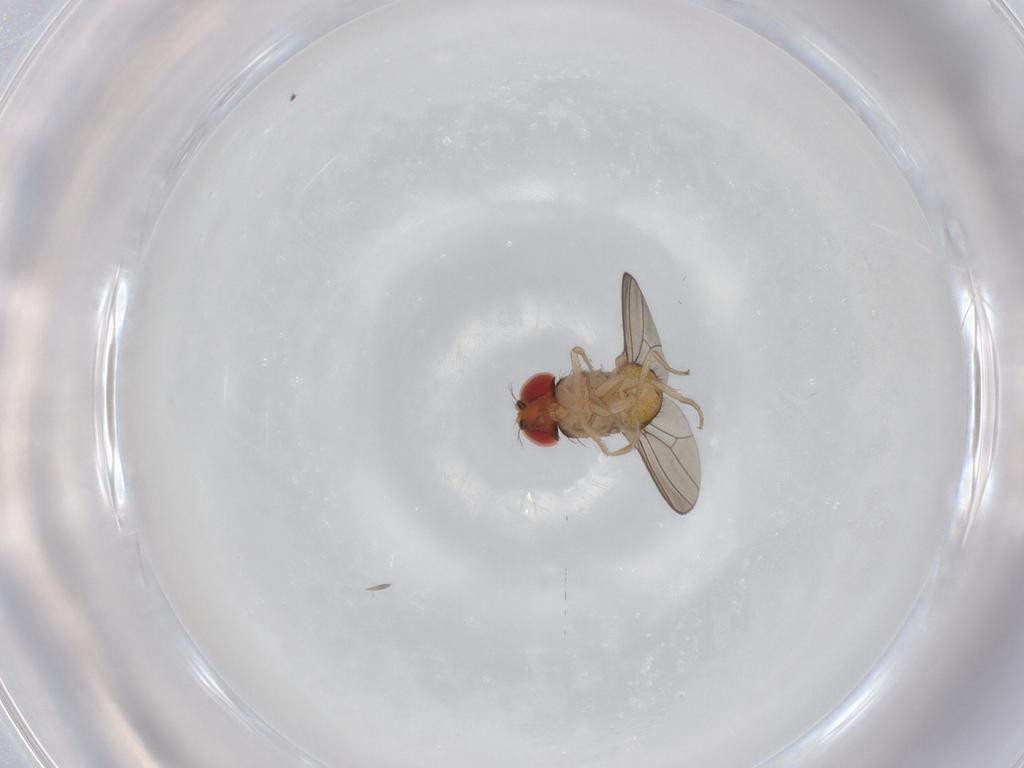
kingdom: Animalia
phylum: Arthropoda
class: Insecta
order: Diptera
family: Drosophilidae
